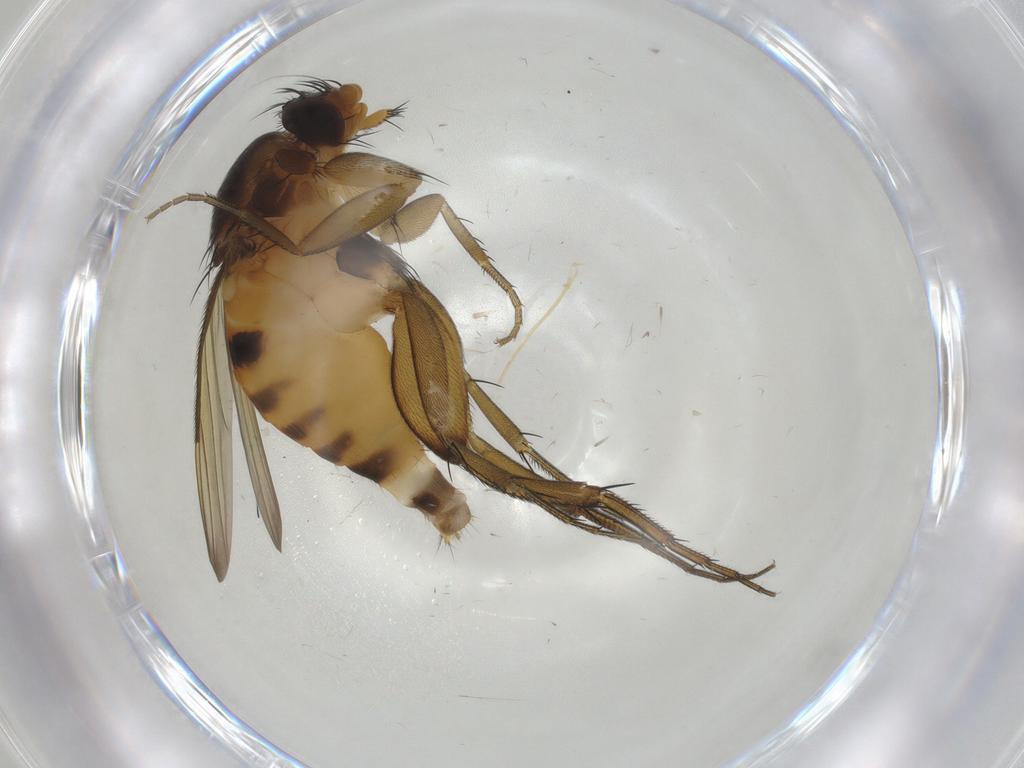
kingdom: Animalia
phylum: Arthropoda
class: Insecta
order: Diptera
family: Phoridae
